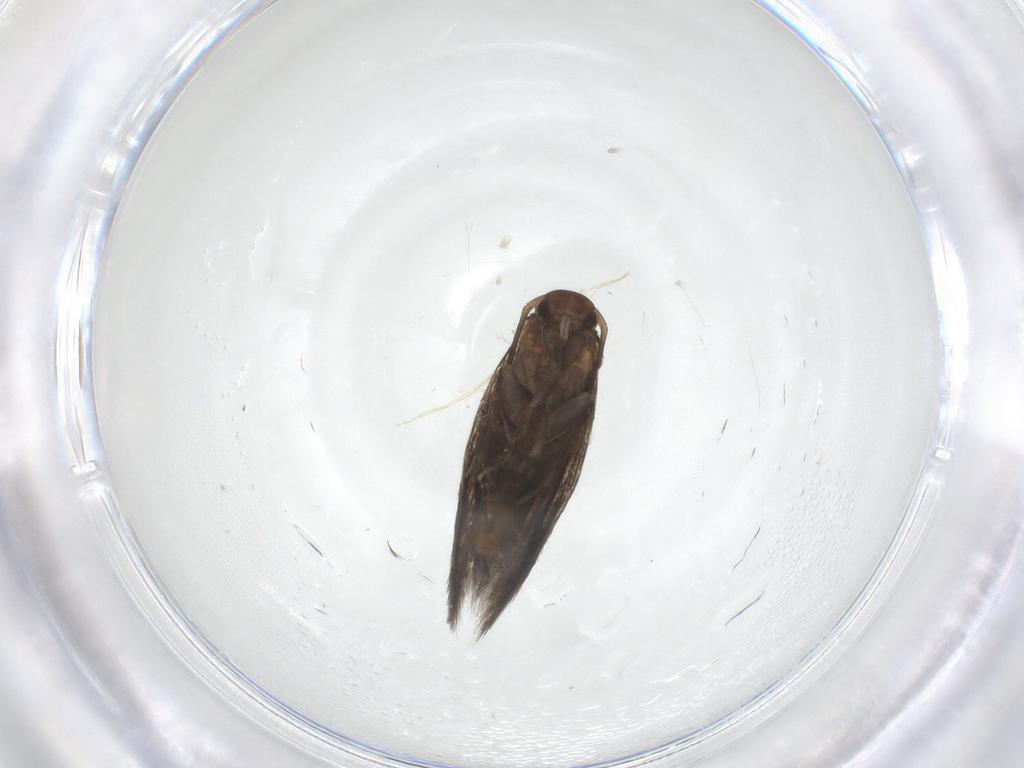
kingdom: Animalia
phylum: Arthropoda
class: Insecta
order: Lepidoptera
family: Elachistidae
